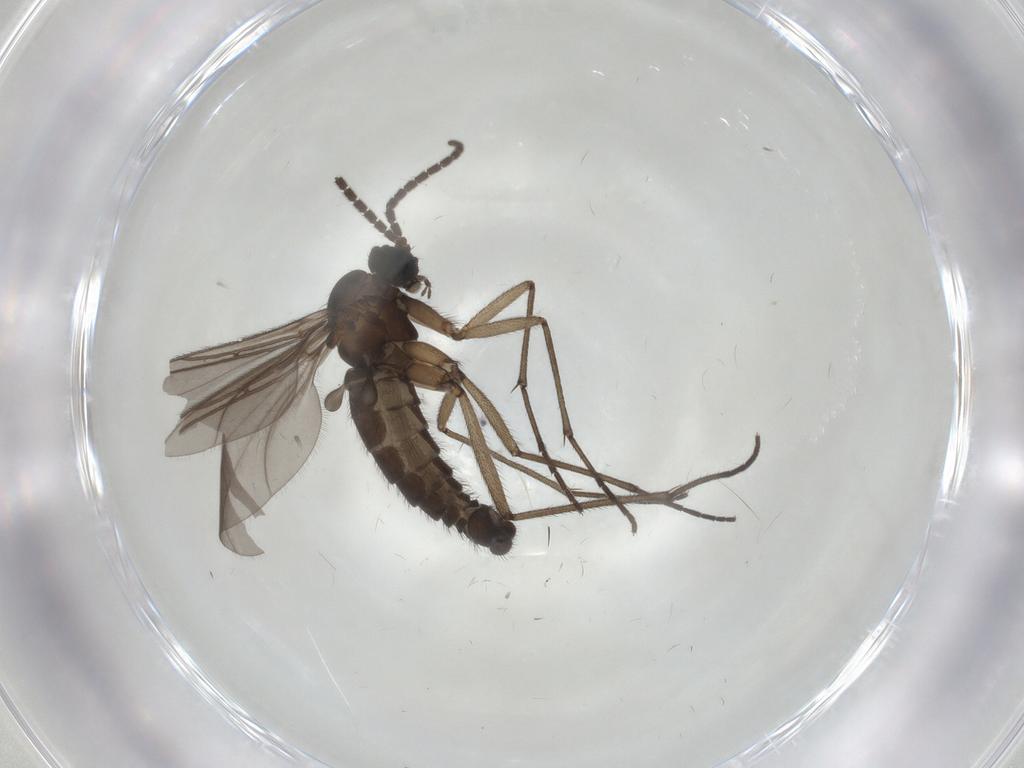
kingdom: Animalia
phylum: Arthropoda
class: Insecta
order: Diptera
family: Sciaridae
